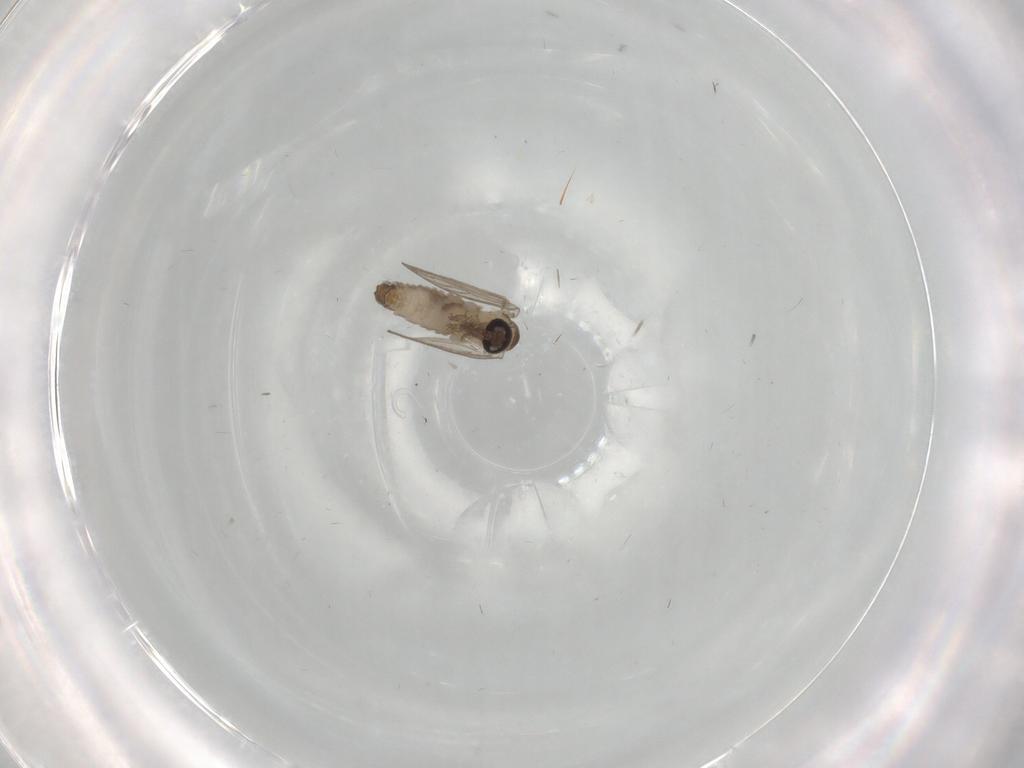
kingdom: Animalia
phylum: Arthropoda
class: Insecta
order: Diptera
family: Psychodidae
